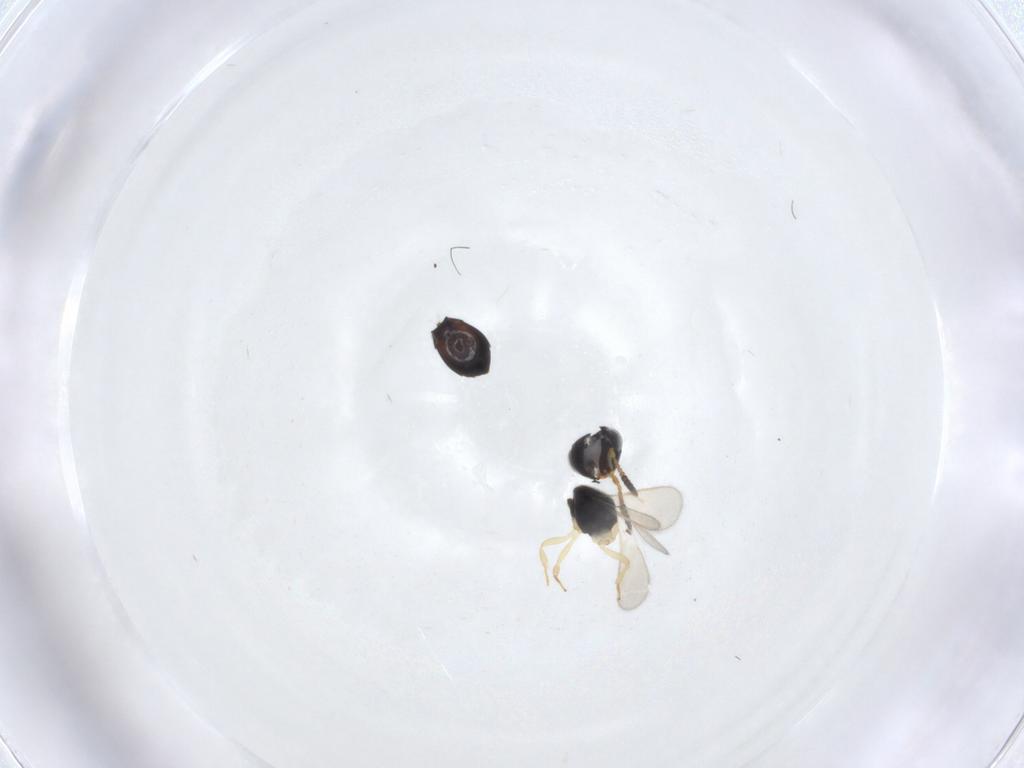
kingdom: Animalia
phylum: Arthropoda
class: Insecta
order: Hymenoptera
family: Scelionidae
